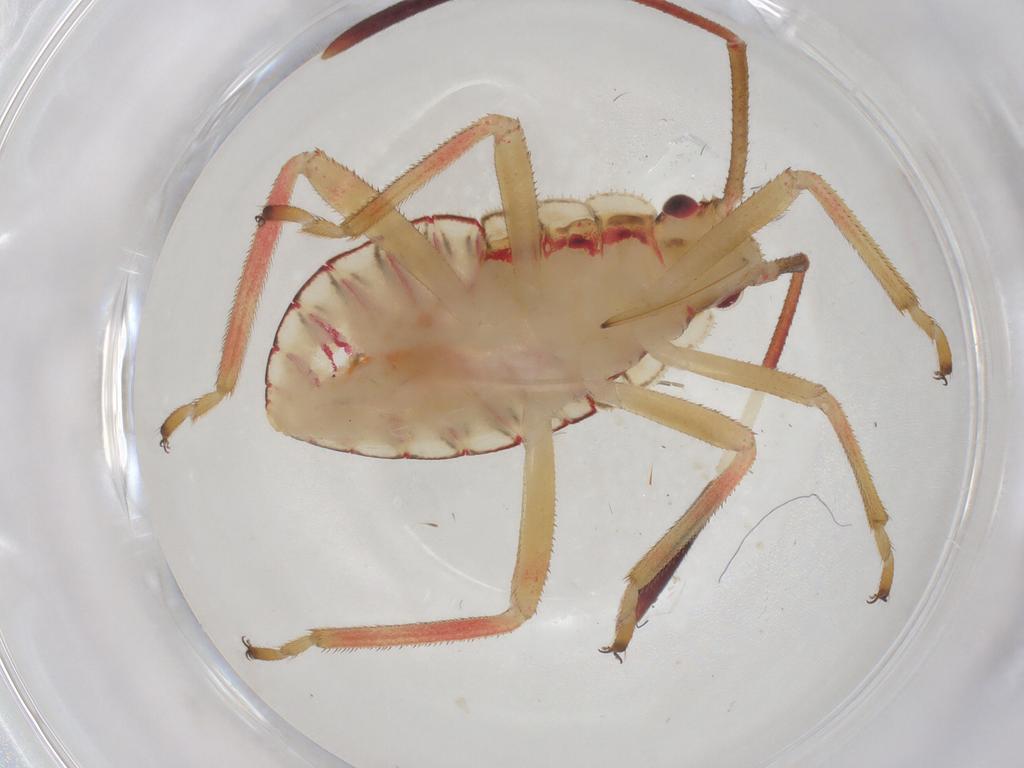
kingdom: Animalia
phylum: Arthropoda
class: Insecta
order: Hemiptera
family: Coreidae
